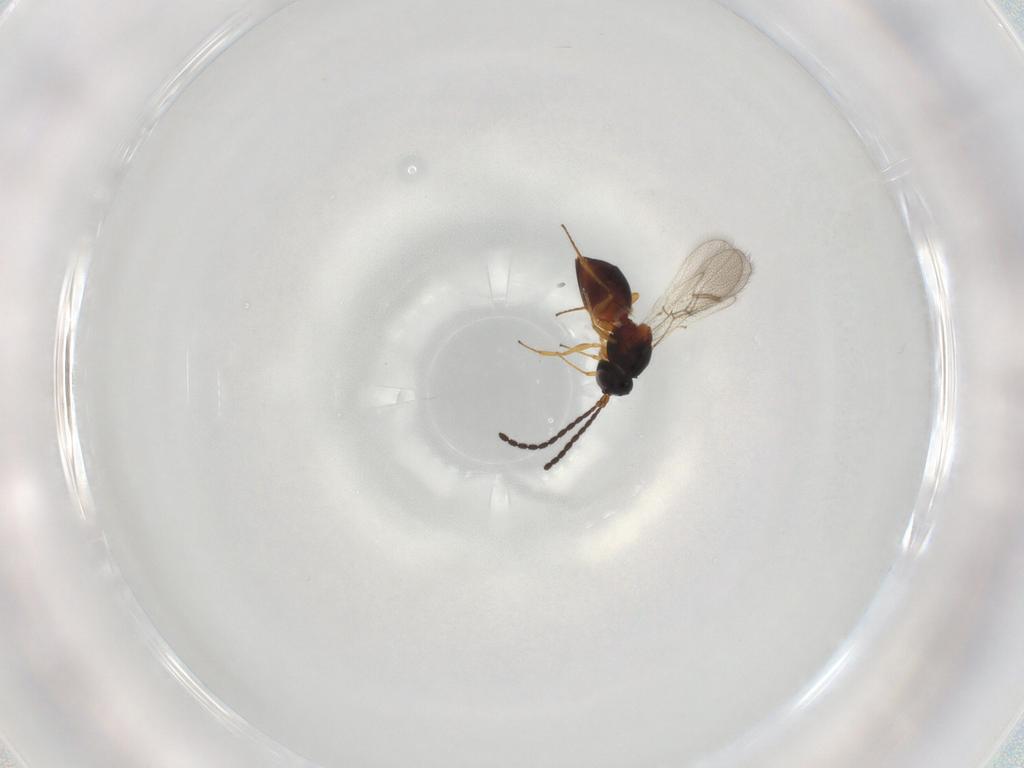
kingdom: Animalia
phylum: Arthropoda
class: Insecta
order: Hymenoptera
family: Figitidae
